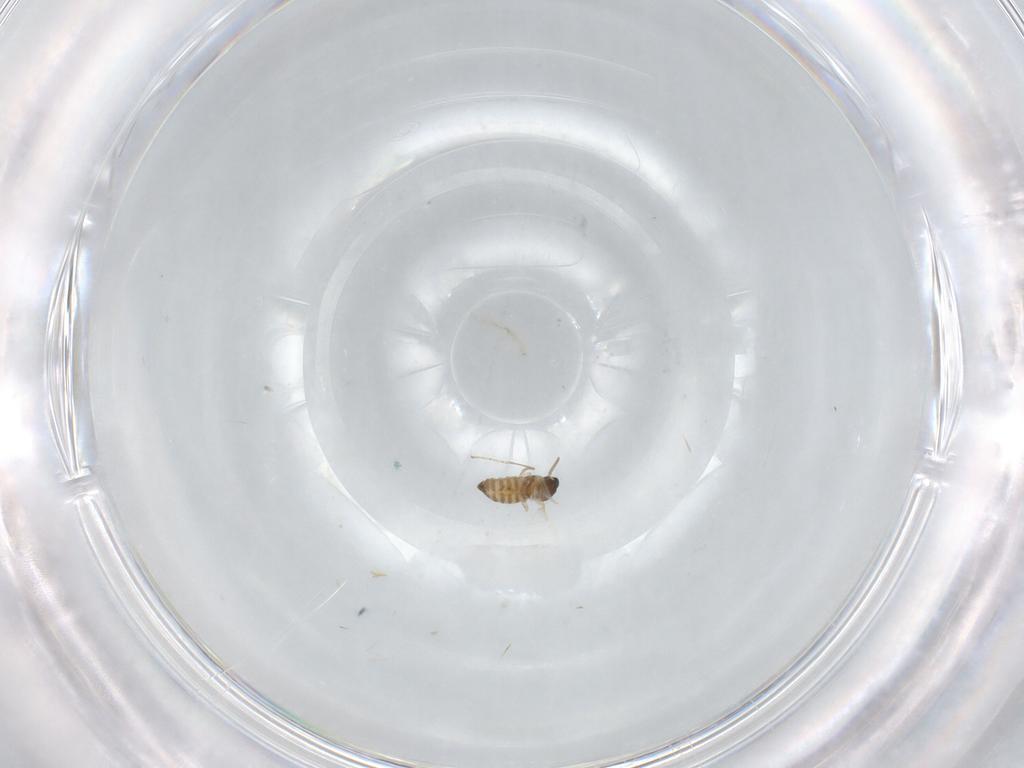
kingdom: Animalia
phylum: Arthropoda
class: Insecta
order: Diptera
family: Cecidomyiidae
